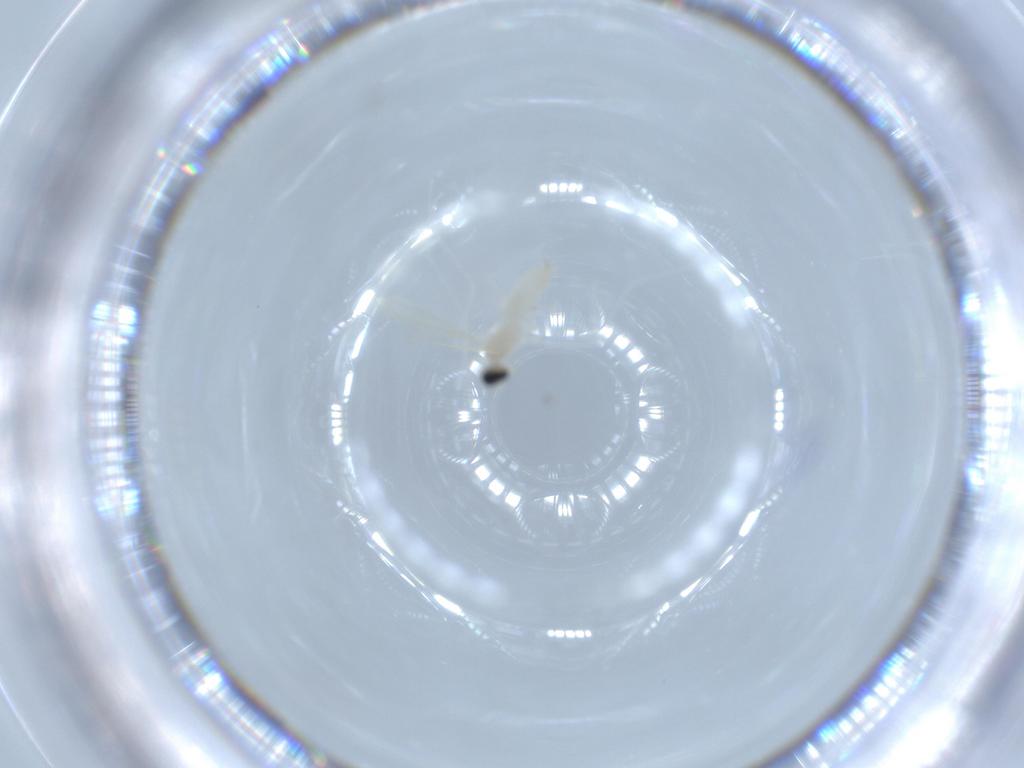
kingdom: Animalia
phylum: Arthropoda
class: Insecta
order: Diptera
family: Cecidomyiidae
